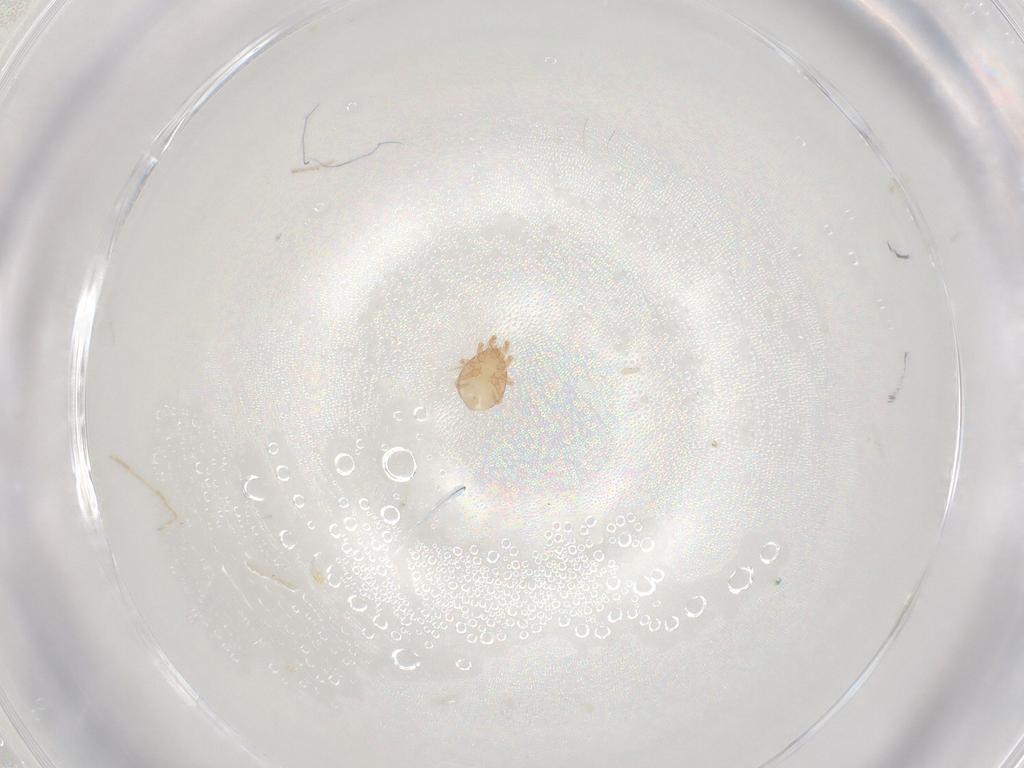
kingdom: Animalia
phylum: Arthropoda
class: Arachnida
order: Mesostigmata
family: Melicharidae
